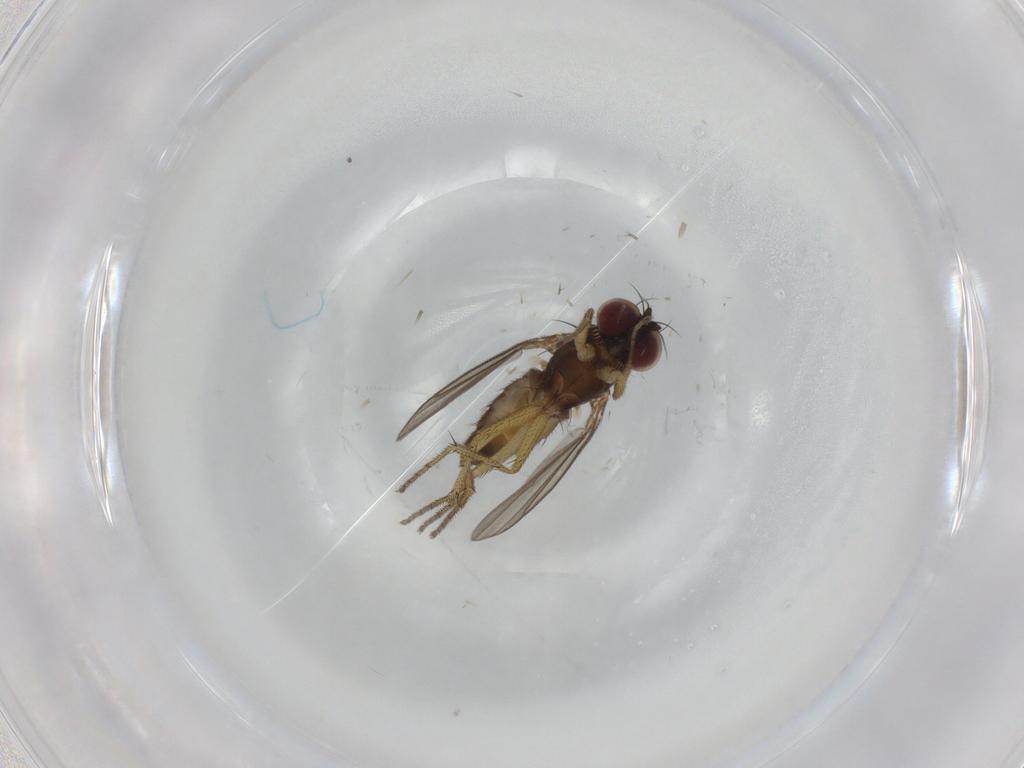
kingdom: Animalia
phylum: Arthropoda
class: Insecta
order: Diptera
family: Dolichopodidae
